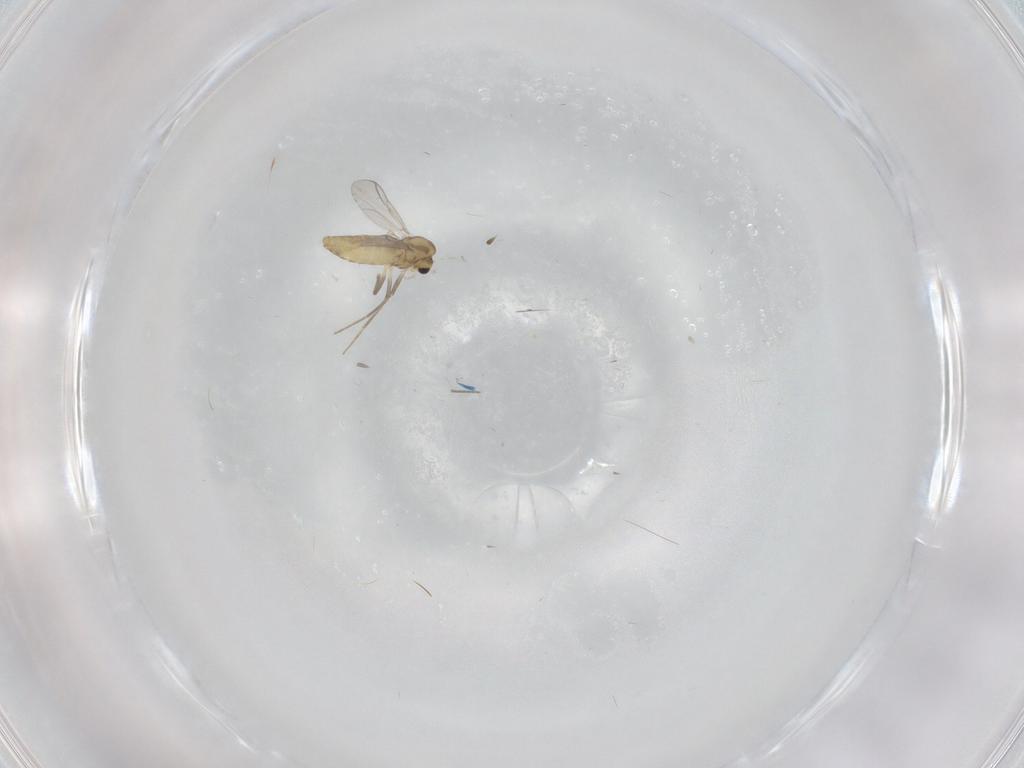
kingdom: Animalia
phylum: Arthropoda
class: Insecta
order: Diptera
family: Chironomidae
